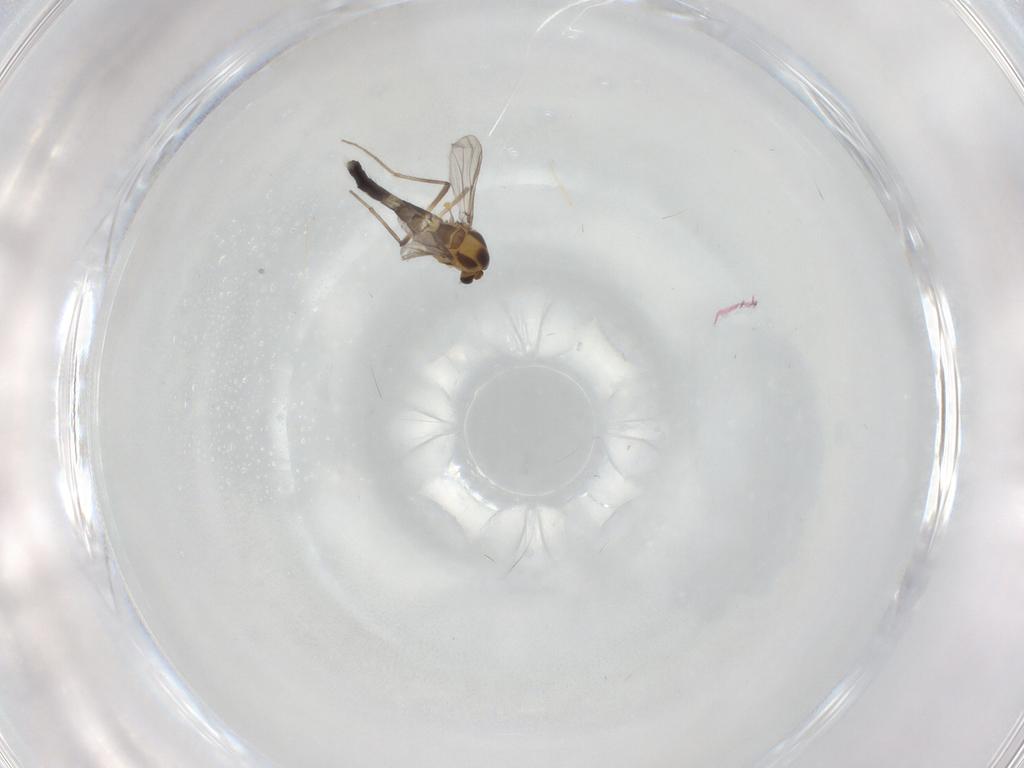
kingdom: Animalia
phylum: Arthropoda
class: Insecta
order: Diptera
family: Chironomidae
